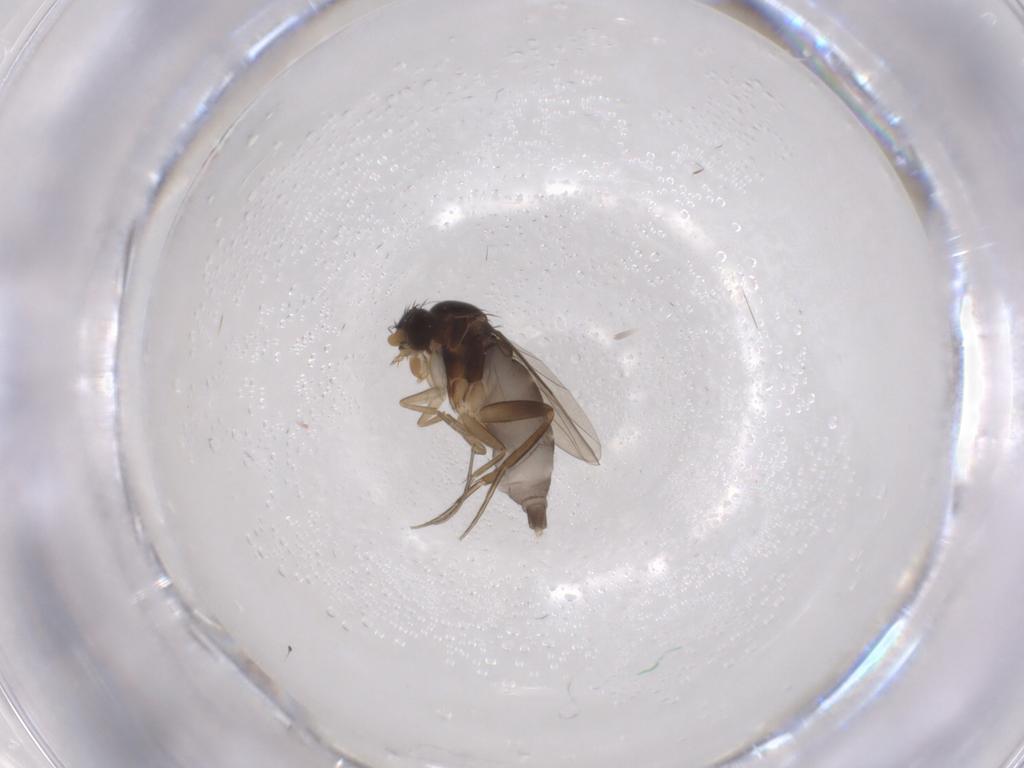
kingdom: Animalia
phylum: Arthropoda
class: Insecta
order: Diptera
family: Phoridae
